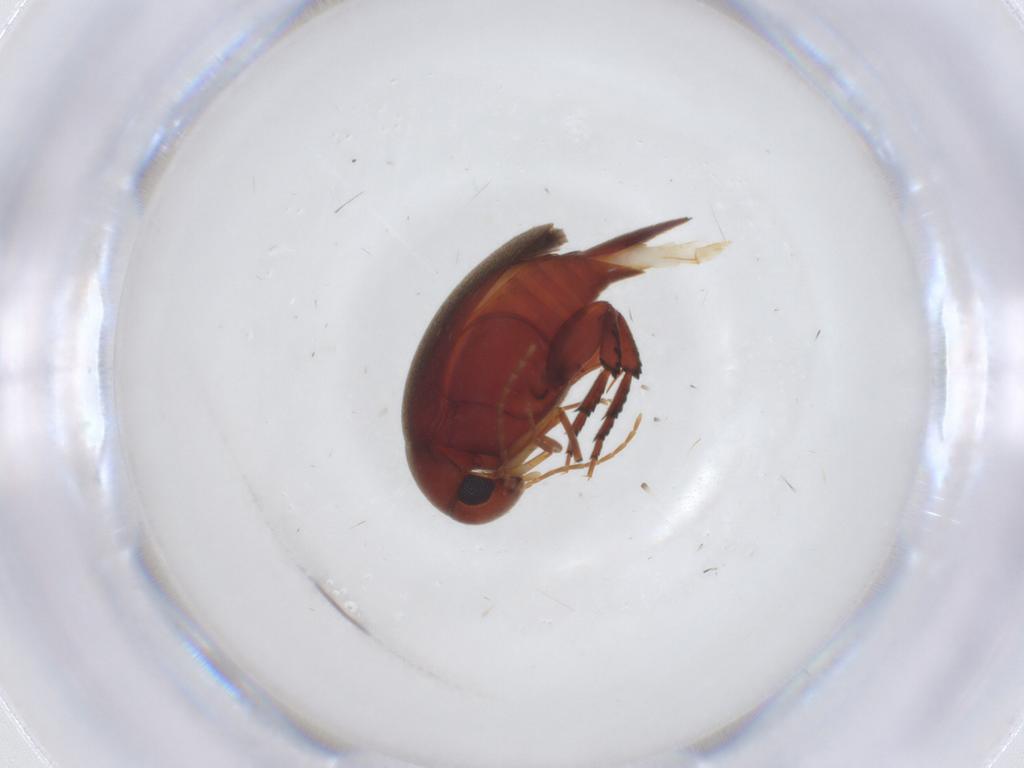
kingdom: Animalia
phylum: Arthropoda
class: Insecta
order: Coleoptera
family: Mordellidae
